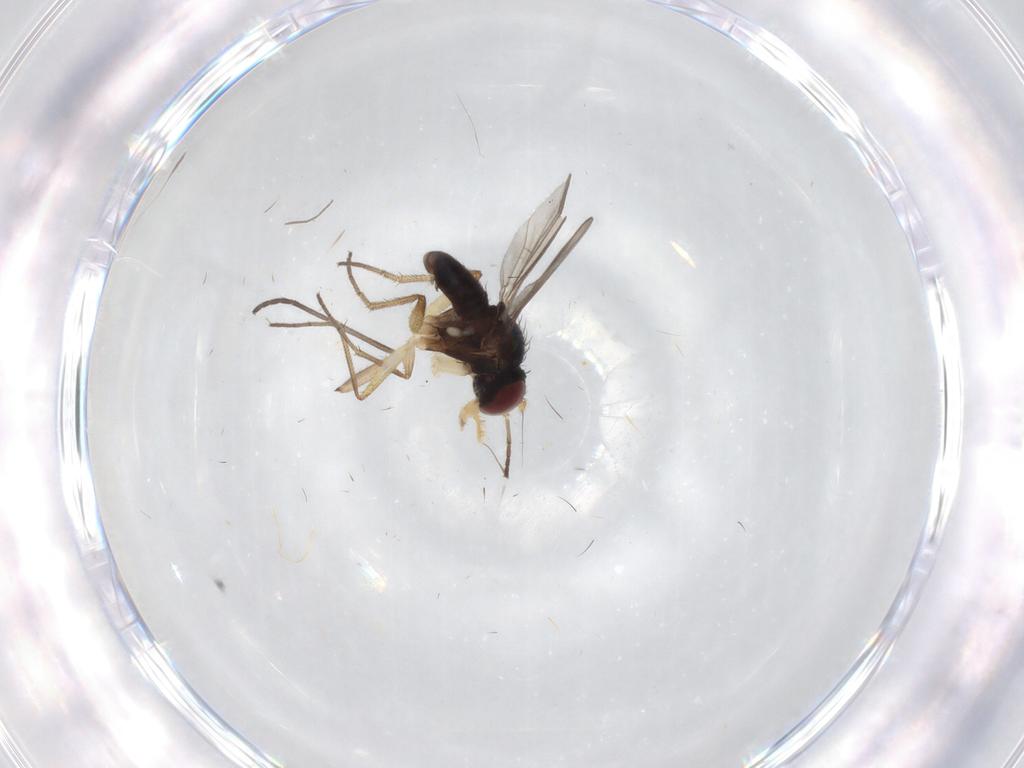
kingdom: Animalia
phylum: Arthropoda
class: Insecta
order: Diptera
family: Dolichopodidae
